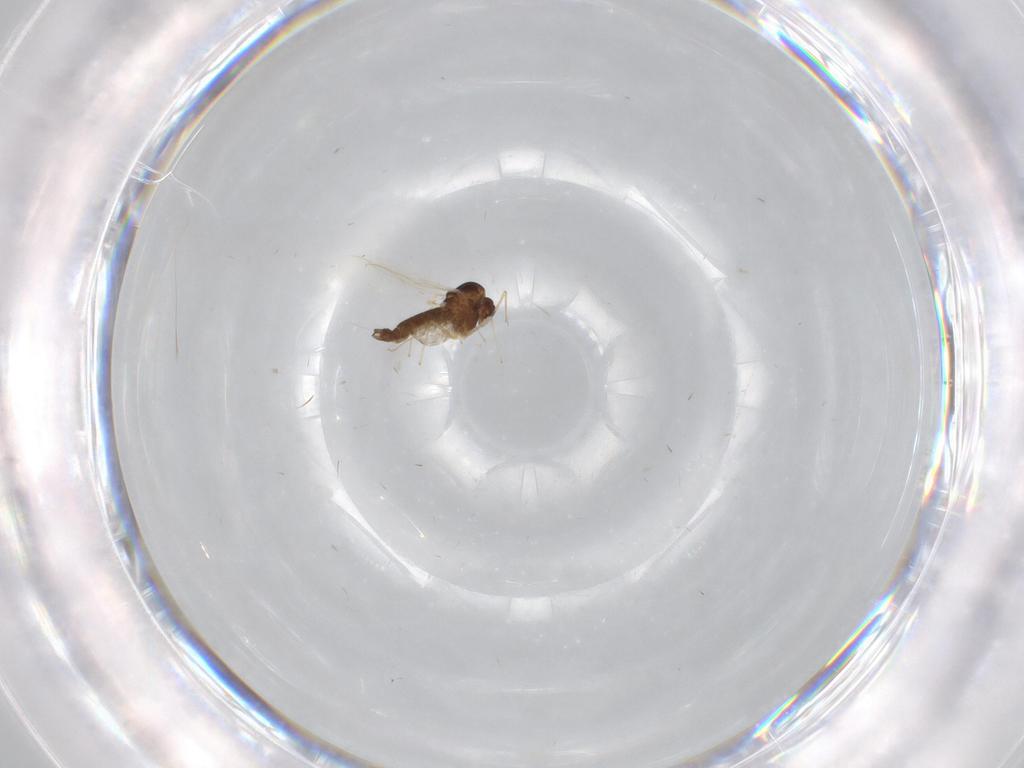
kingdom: Animalia
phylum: Arthropoda
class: Insecta
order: Diptera
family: Chironomidae
